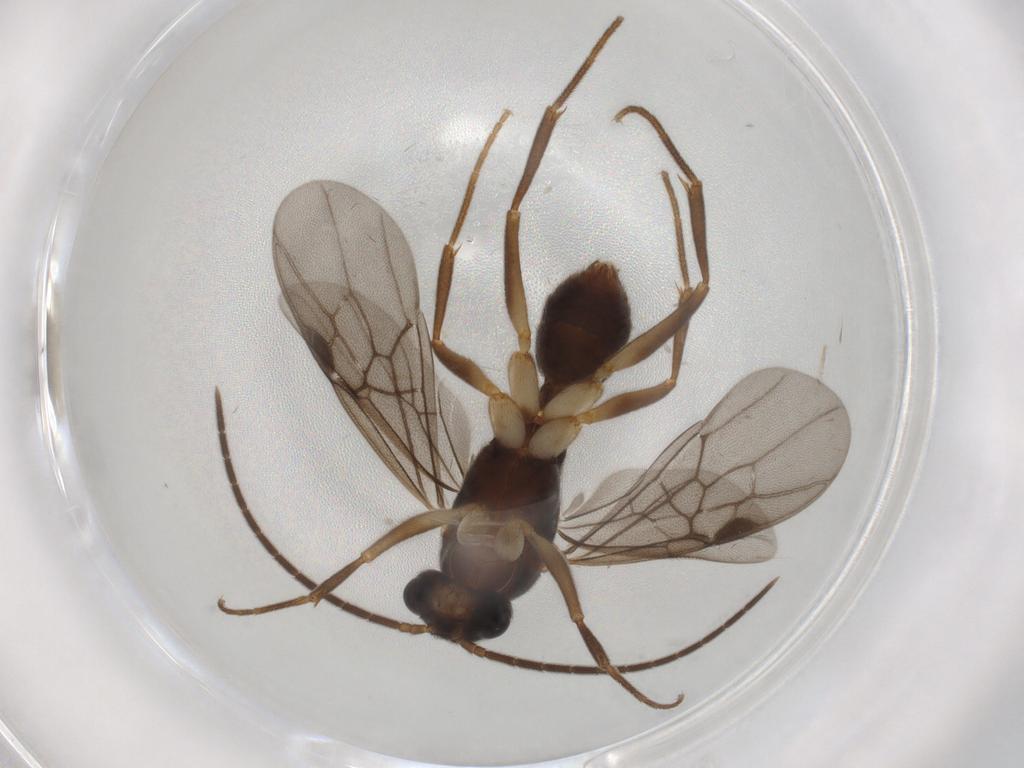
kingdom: Animalia
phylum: Arthropoda
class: Insecta
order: Hymenoptera
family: Formicidae
